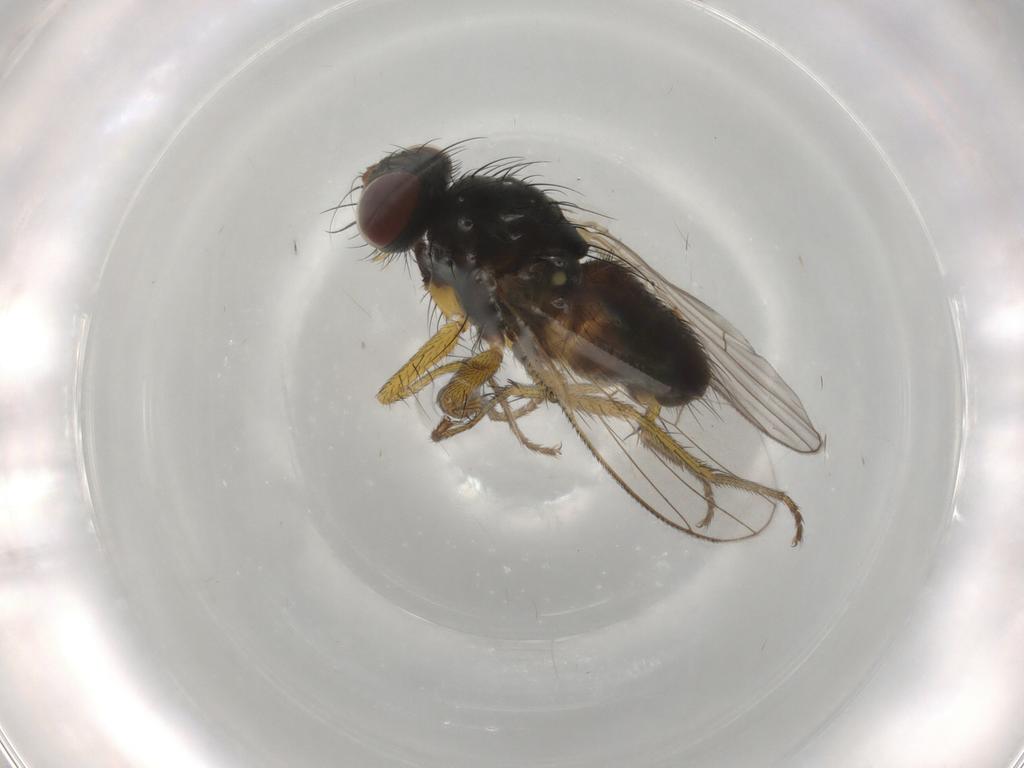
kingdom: Animalia
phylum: Arthropoda
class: Insecta
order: Diptera
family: Muscidae
